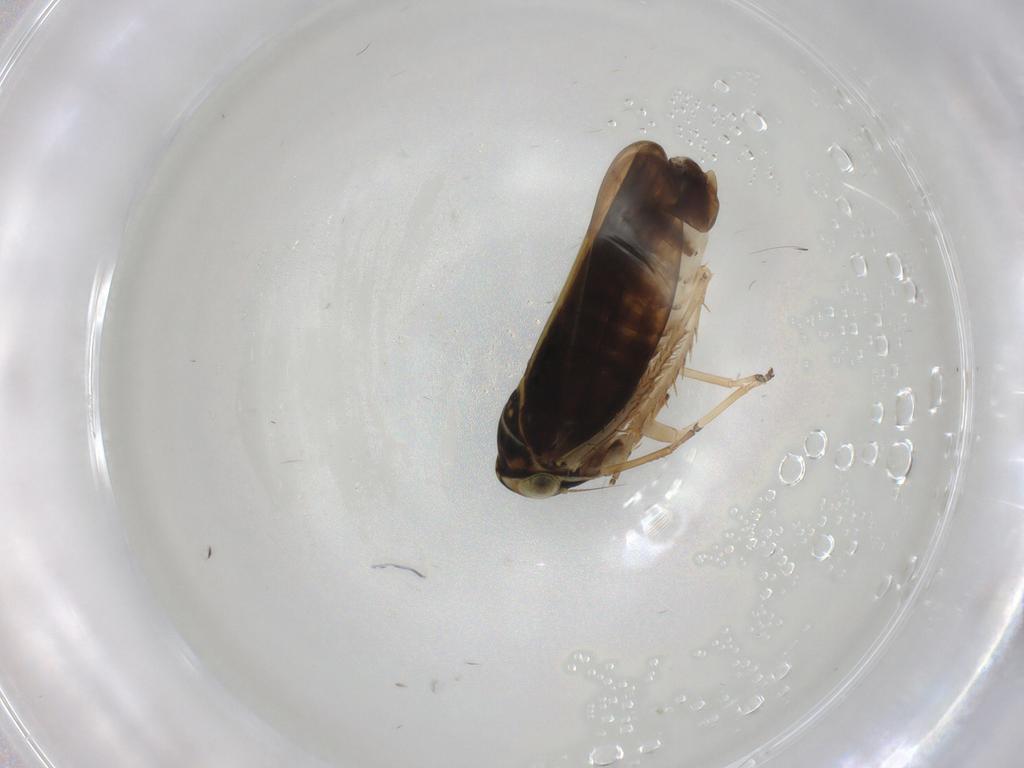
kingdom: Animalia
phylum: Arthropoda
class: Insecta
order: Hemiptera
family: Cicadellidae
